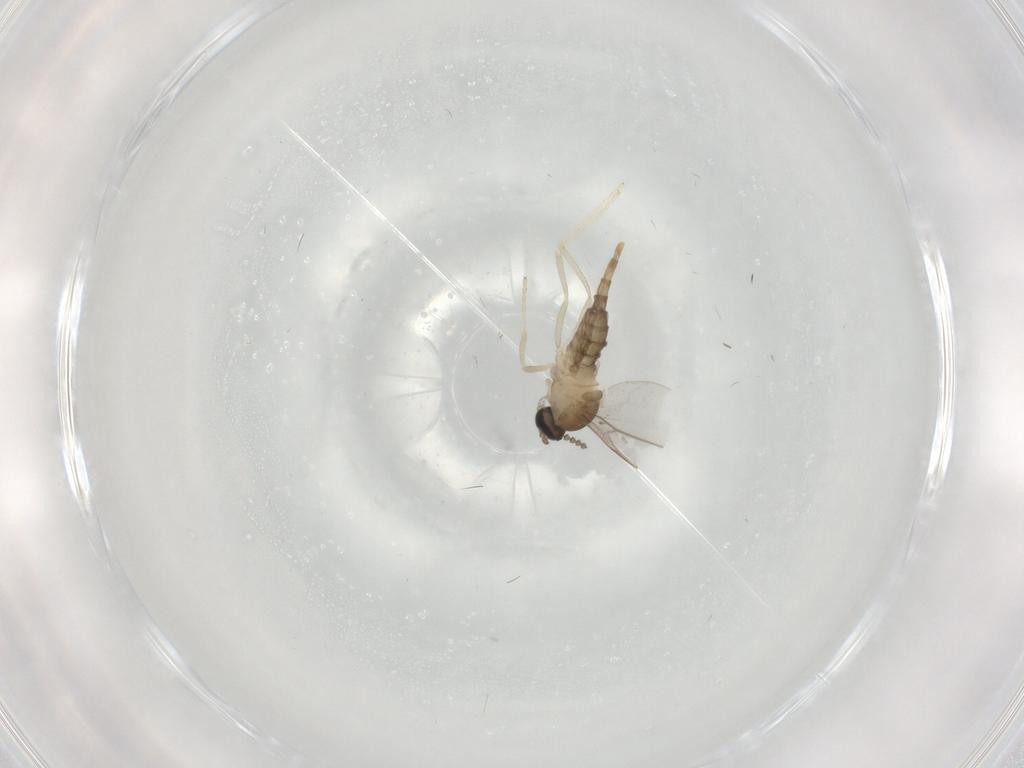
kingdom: Animalia
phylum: Arthropoda
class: Insecta
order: Diptera
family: Cecidomyiidae
